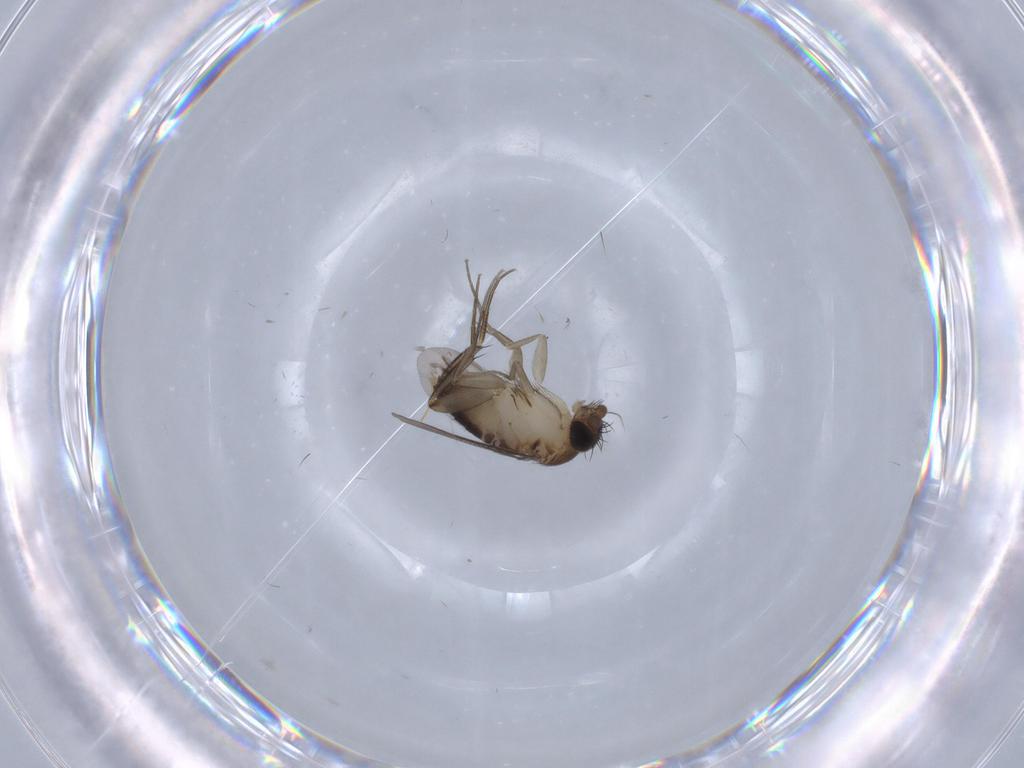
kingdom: Animalia
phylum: Arthropoda
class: Insecta
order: Diptera
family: Phoridae
